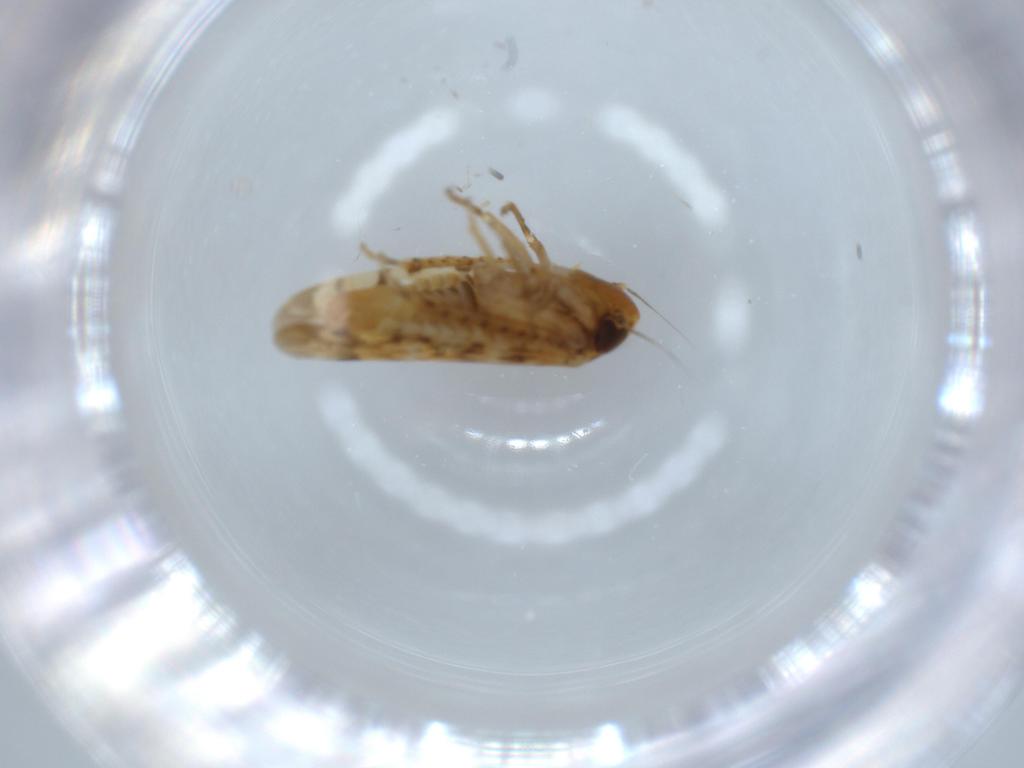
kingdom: Animalia
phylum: Arthropoda
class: Insecta
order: Hemiptera
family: Cicadellidae
